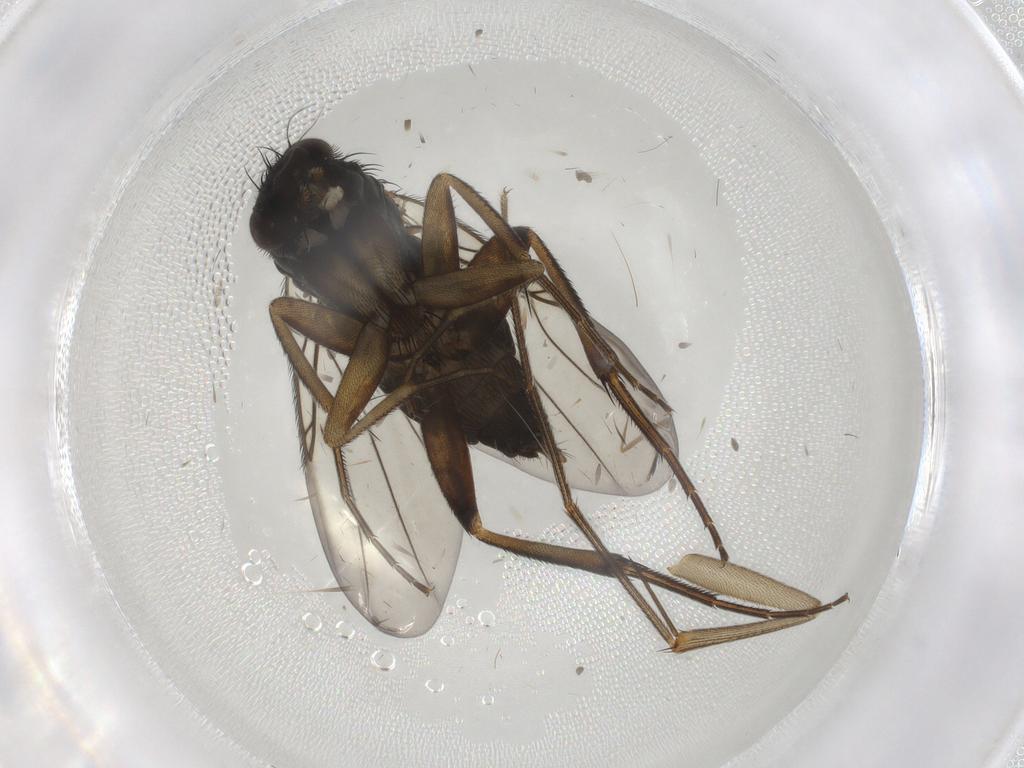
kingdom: Animalia
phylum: Arthropoda
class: Insecta
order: Diptera
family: Phoridae
